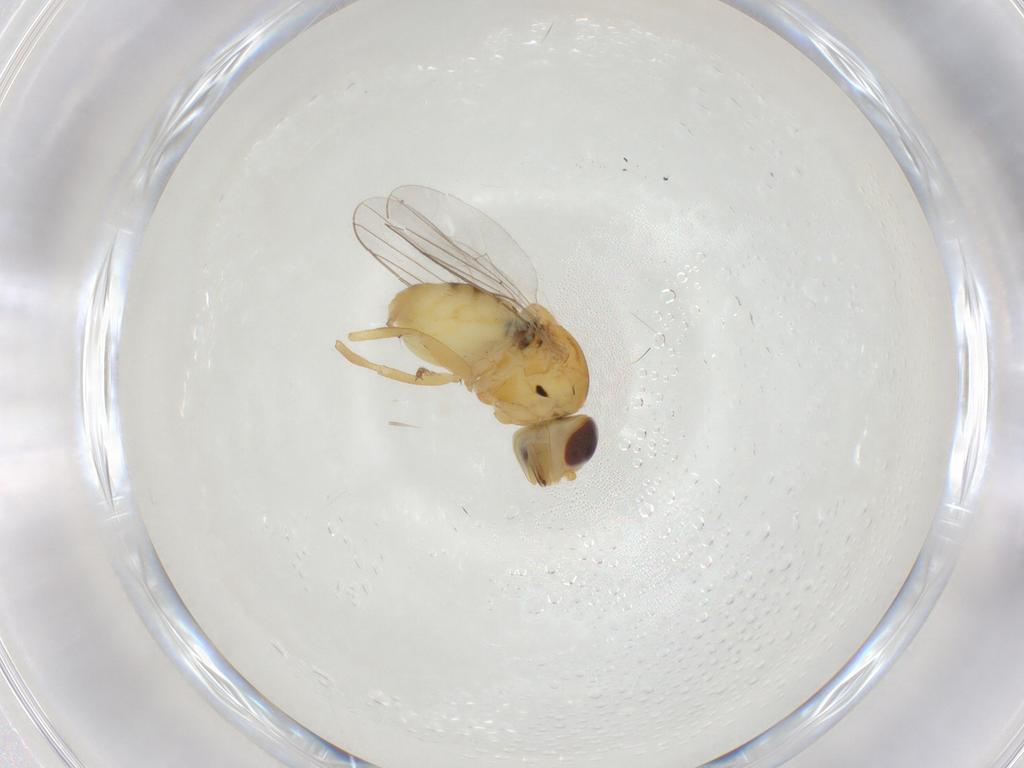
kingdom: Animalia
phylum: Arthropoda
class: Insecta
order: Diptera
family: Chloropidae
